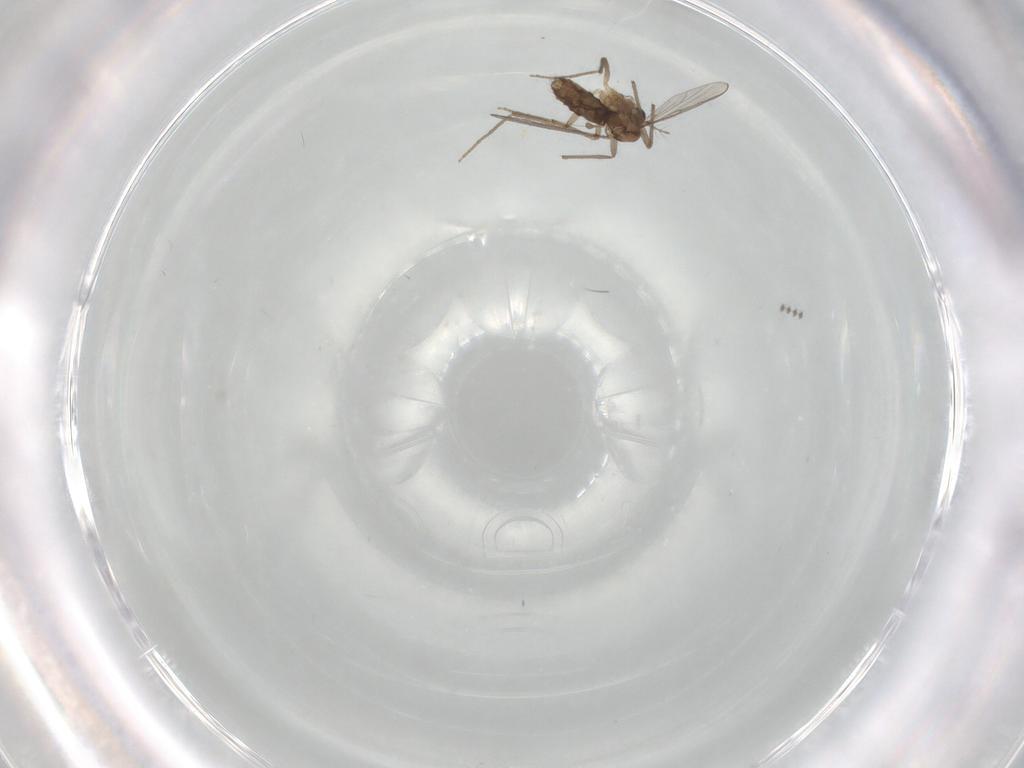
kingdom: Animalia
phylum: Arthropoda
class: Insecta
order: Diptera
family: Chironomidae
